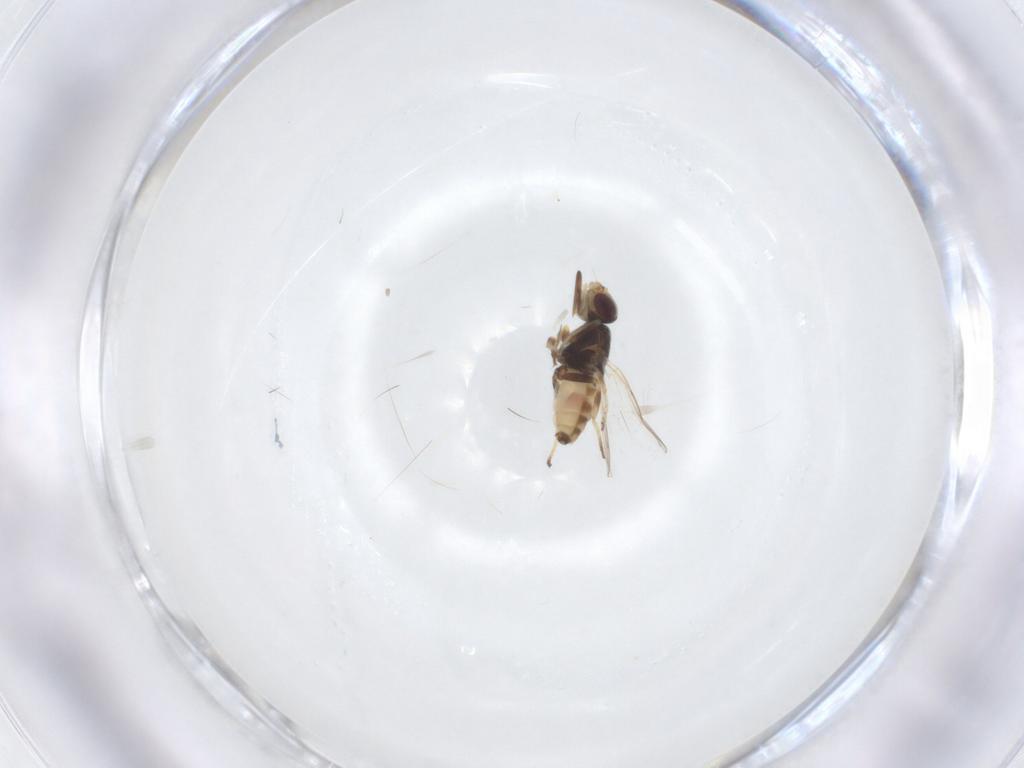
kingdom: Animalia
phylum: Arthropoda
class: Insecta
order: Diptera
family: Chloropidae
